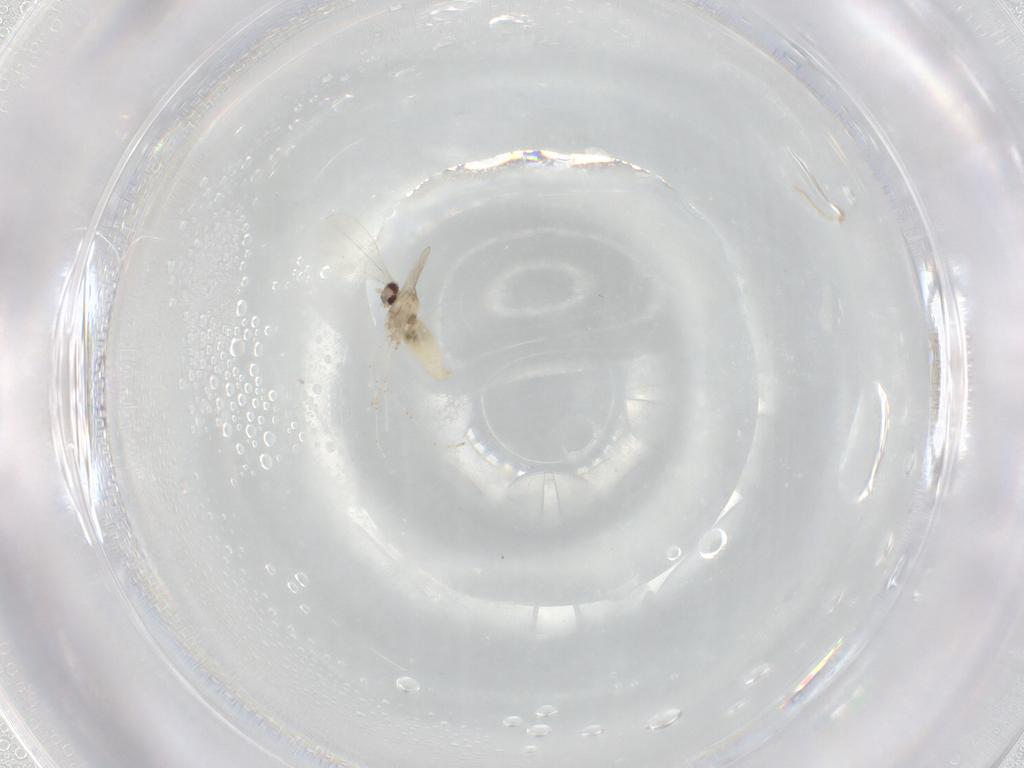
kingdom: Animalia
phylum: Arthropoda
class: Insecta
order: Diptera
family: Cecidomyiidae
